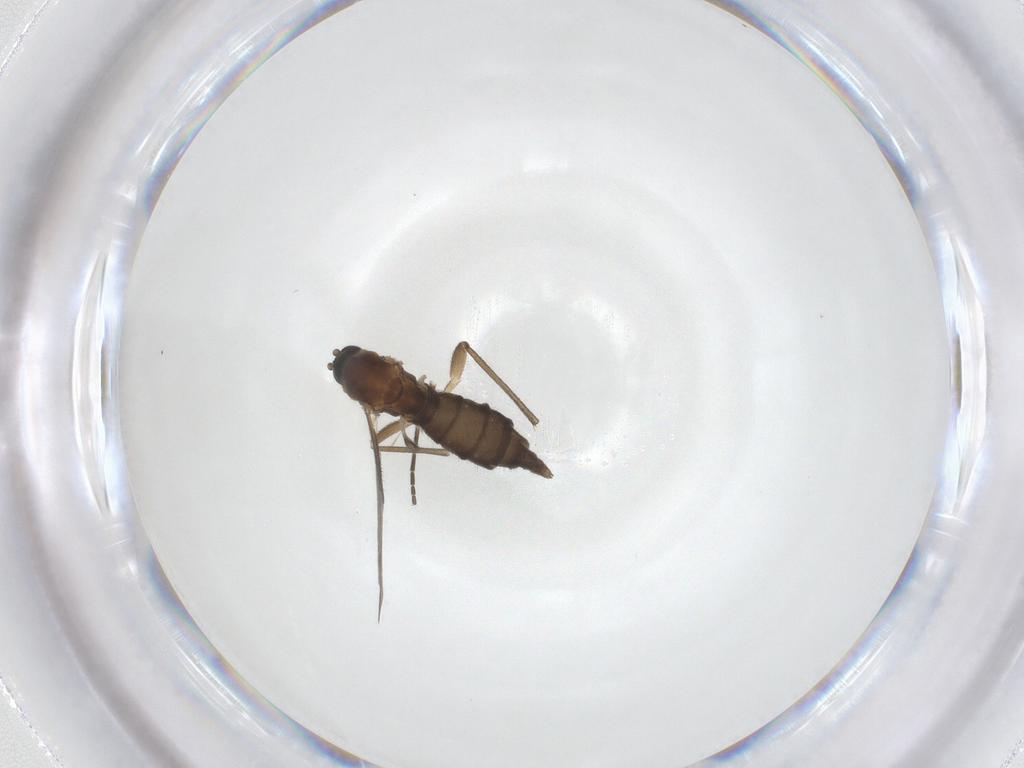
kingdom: Animalia
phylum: Arthropoda
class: Insecta
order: Diptera
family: Sciaridae
